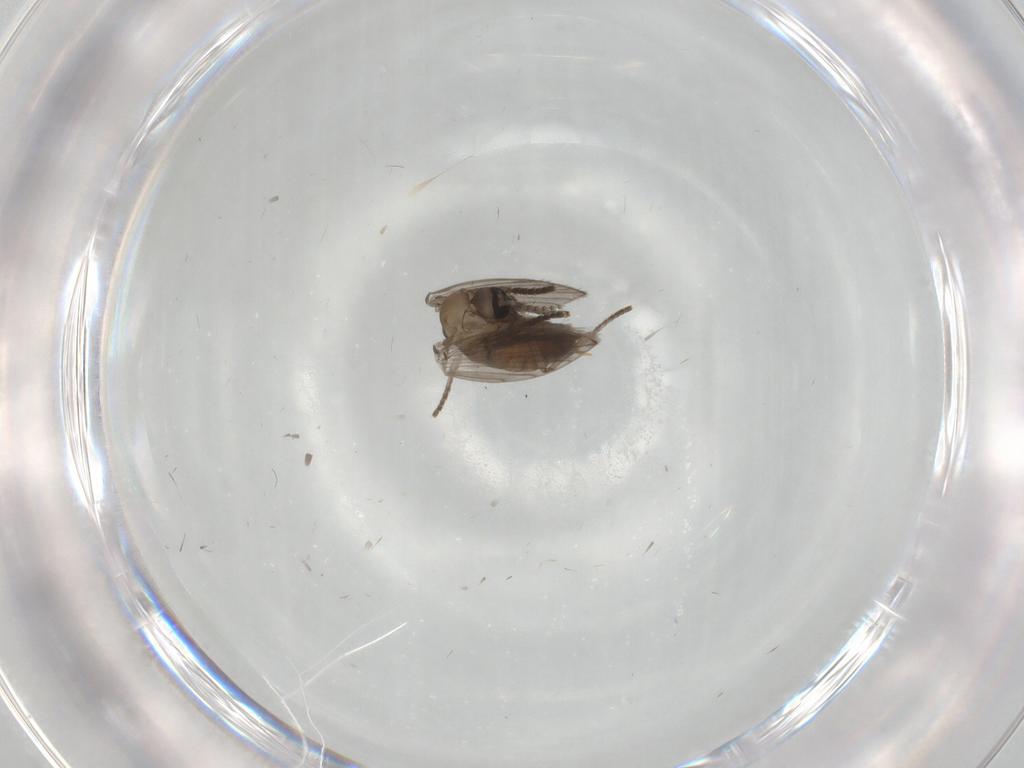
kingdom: Animalia
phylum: Arthropoda
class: Insecta
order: Diptera
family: Psychodidae
